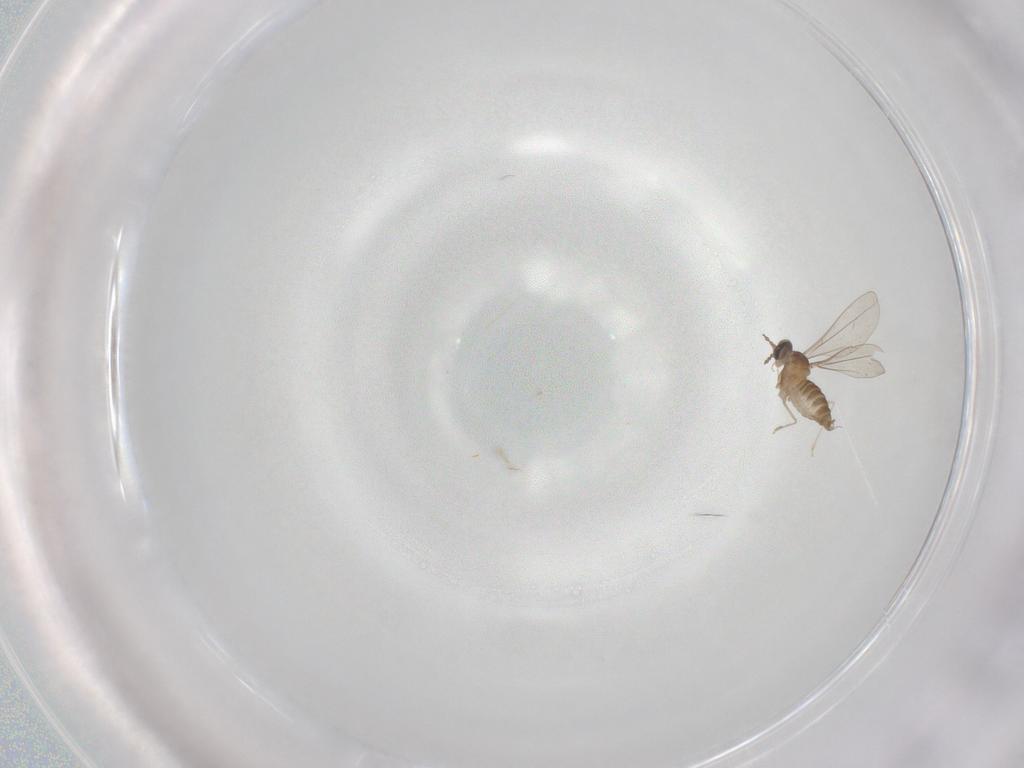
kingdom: Animalia
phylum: Arthropoda
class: Insecta
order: Diptera
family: Cecidomyiidae
